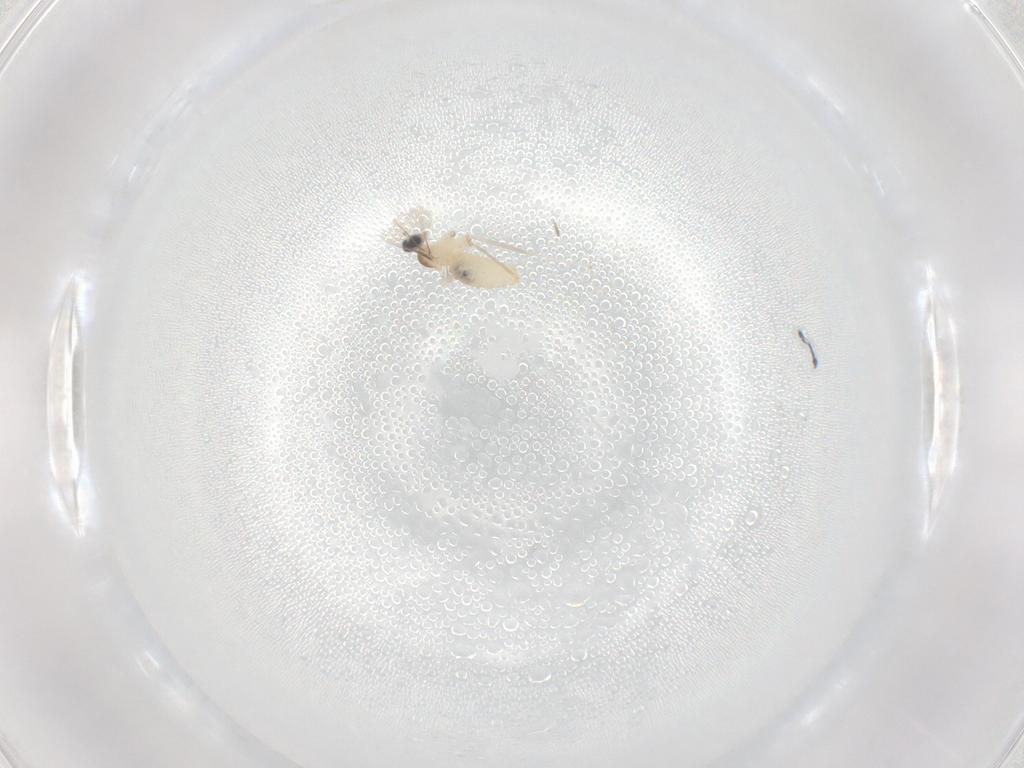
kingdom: Animalia
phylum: Arthropoda
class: Insecta
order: Diptera
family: Cecidomyiidae
